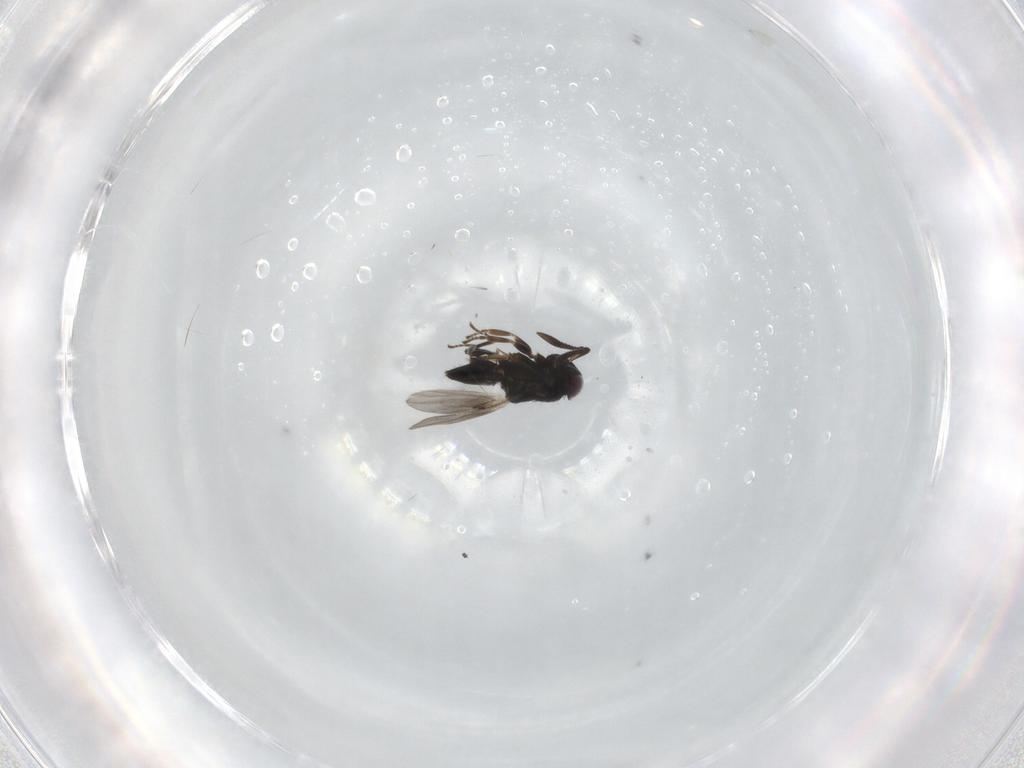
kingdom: Animalia
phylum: Arthropoda
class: Insecta
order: Hymenoptera
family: Encyrtidae
